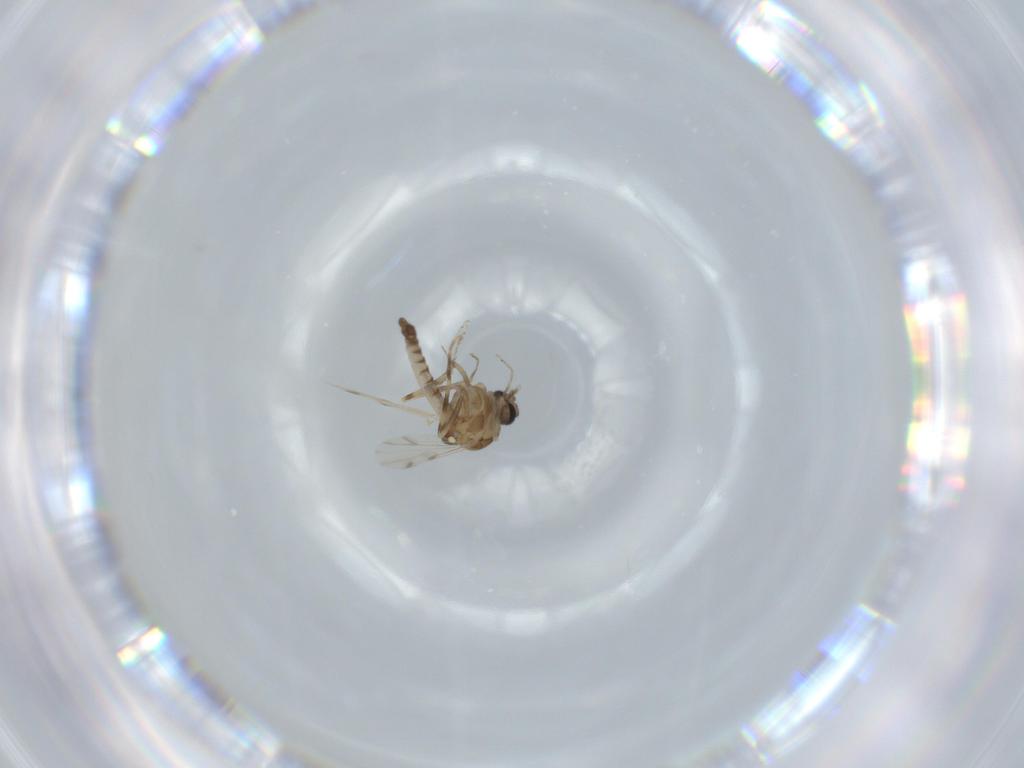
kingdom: Animalia
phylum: Arthropoda
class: Insecta
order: Diptera
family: Ceratopogonidae
